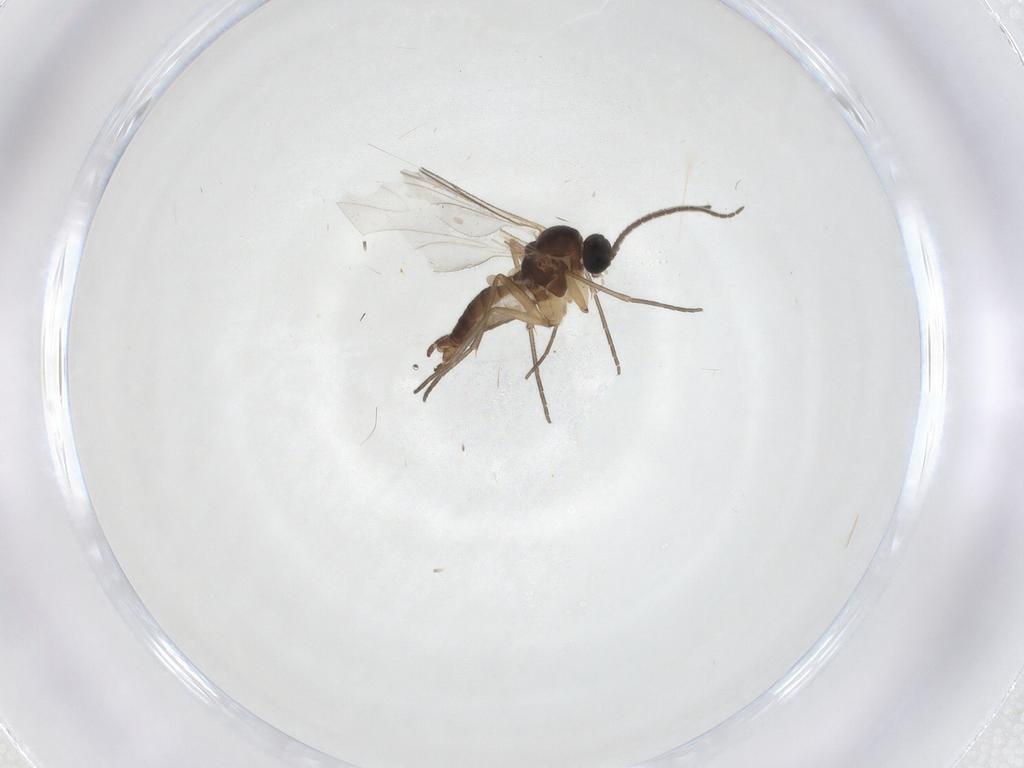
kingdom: Animalia
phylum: Arthropoda
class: Insecta
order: Diptera
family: Sciaridae
